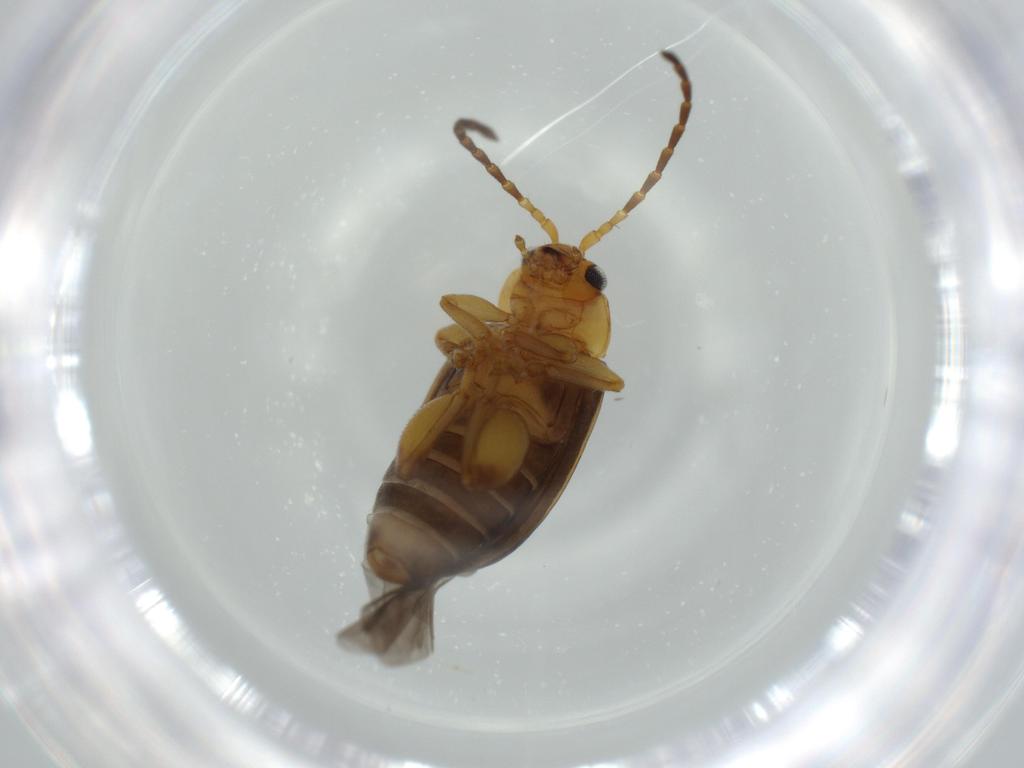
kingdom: Animalia
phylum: Arthropoda
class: Insecta
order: Coleoptera
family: Chrysomelidae
